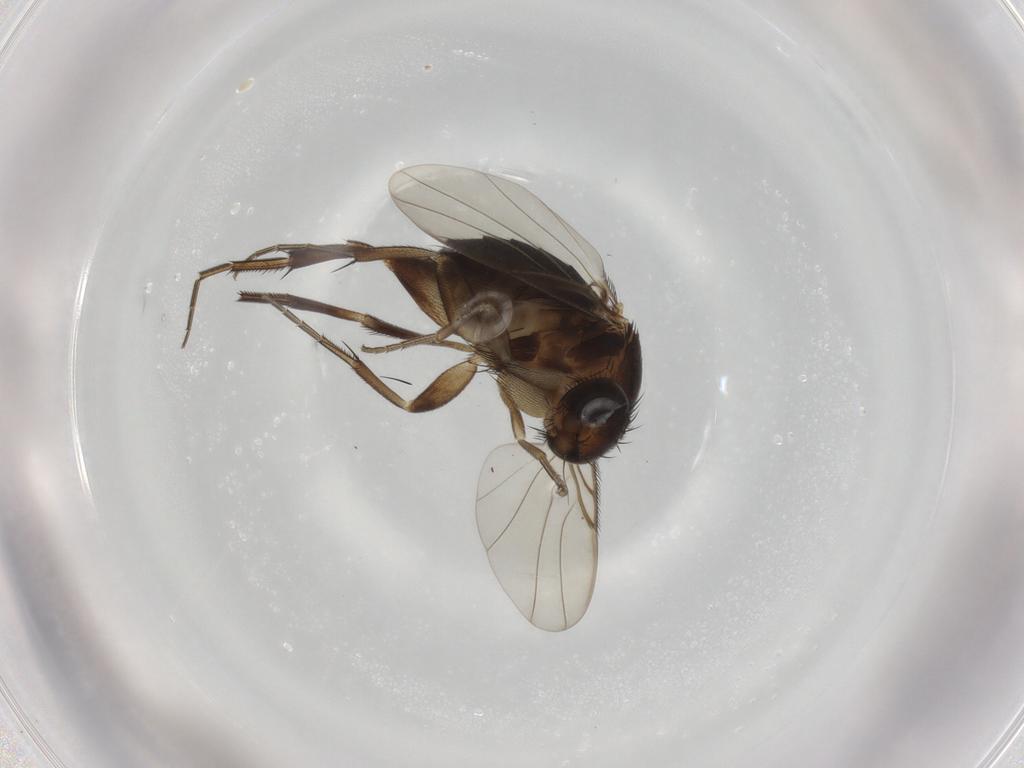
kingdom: Animalia
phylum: Arthropoda
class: Insecta
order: Diptera
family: Phoridae
